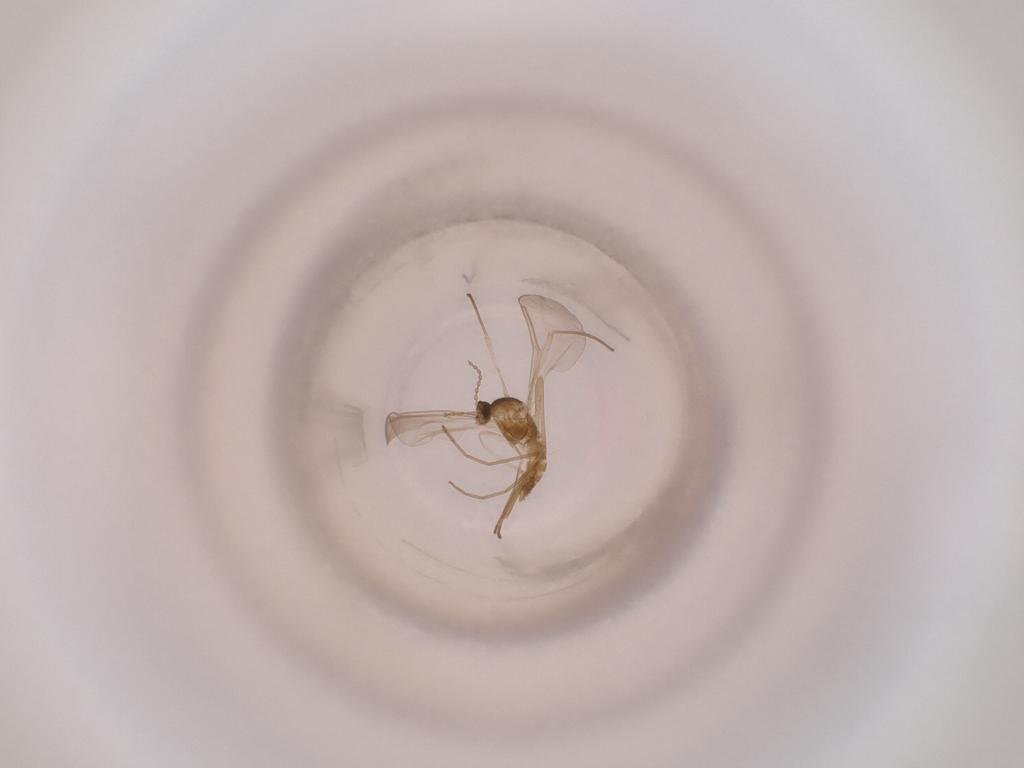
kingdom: Animalia
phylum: Arthropoda
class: Insecta
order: Diptera
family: Cecidomyiidae
